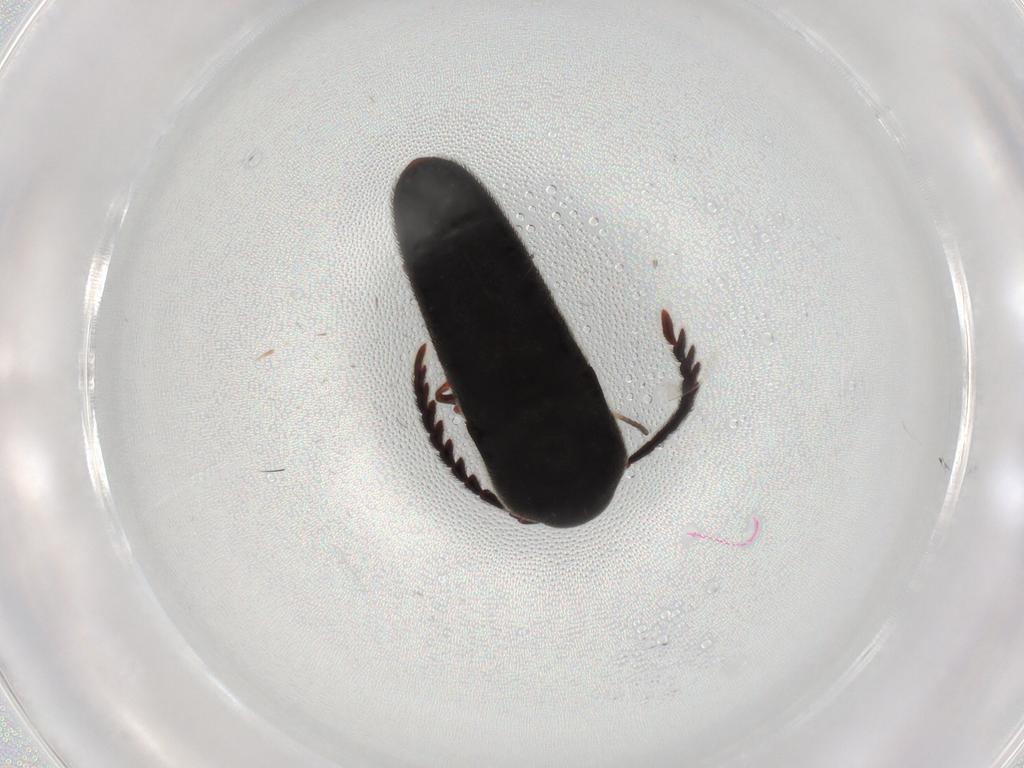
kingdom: Animalia
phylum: Arthropoda
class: Insecta
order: Coleoptera
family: Eucnemidae
